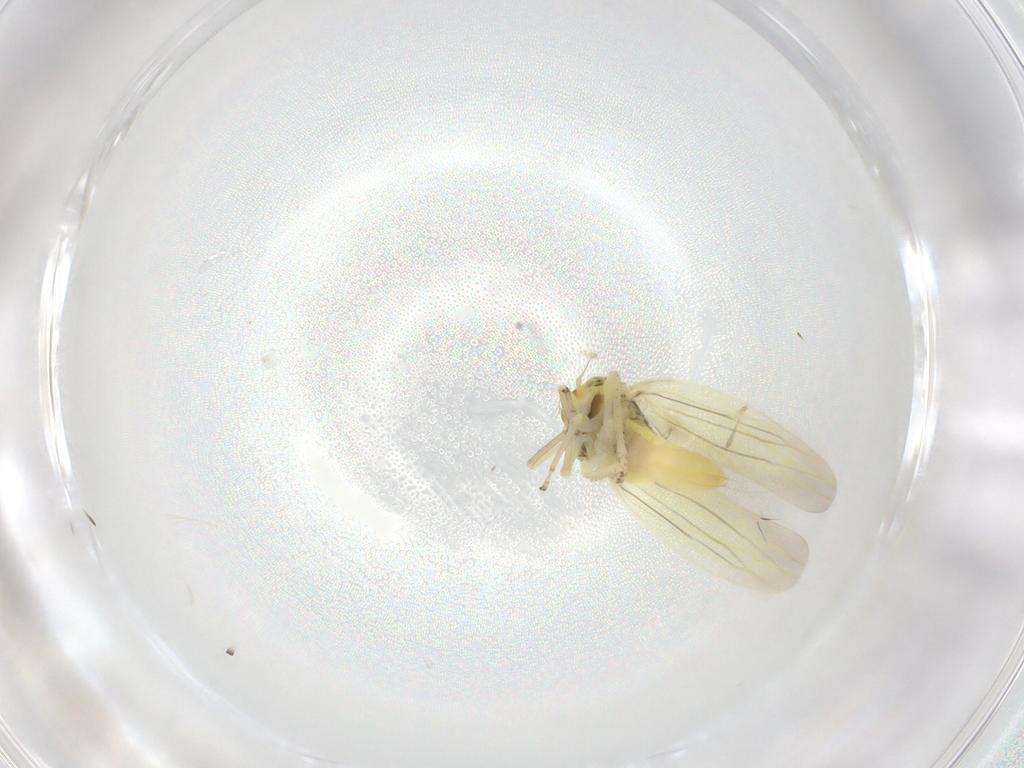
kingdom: Animalia
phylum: Arthropoda
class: Insecta
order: Hemiptera
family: Cicadellidae
